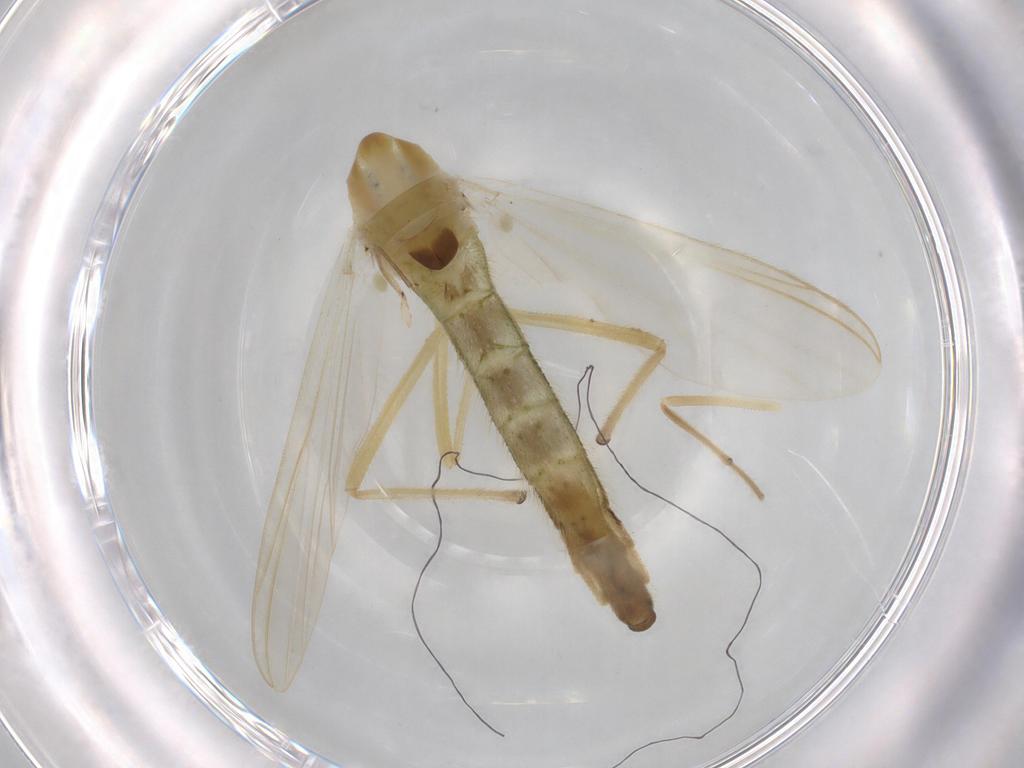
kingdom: Animalia
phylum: Arthropoda
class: Insecta
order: Diptera
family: Chironomidae
